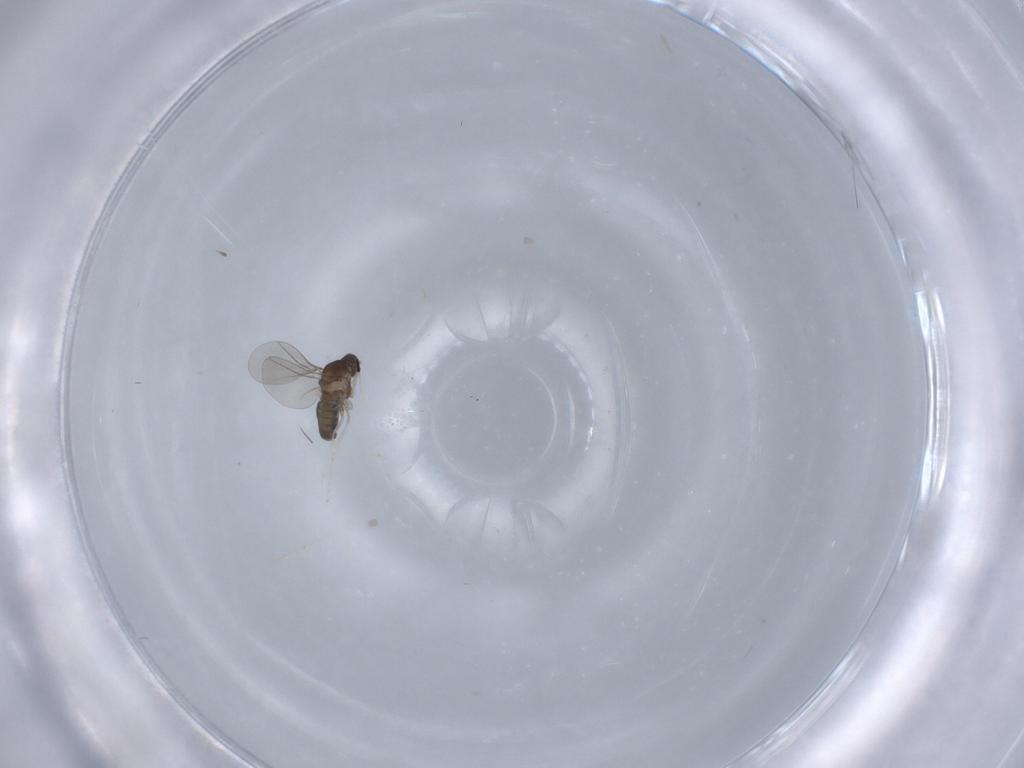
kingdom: Animalia
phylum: Arthropoda
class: Insecta
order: Diptera
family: Cecidomyiidae
